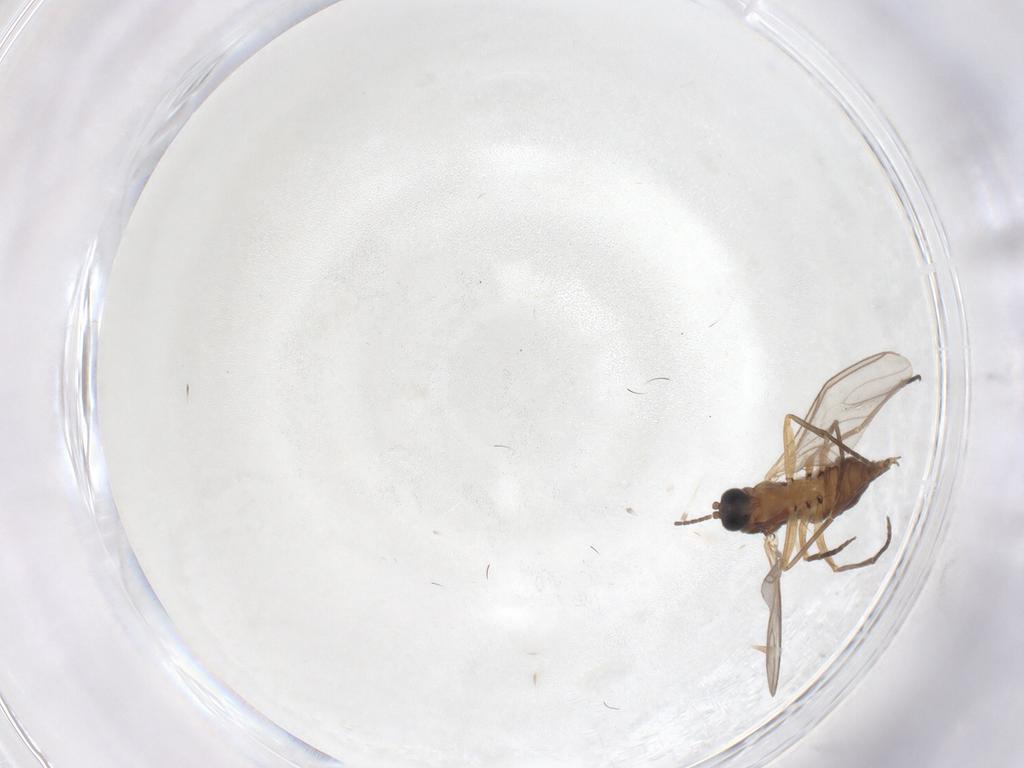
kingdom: Animalia
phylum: Arthropoda
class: Insecta
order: Diptera
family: Sciaridae
